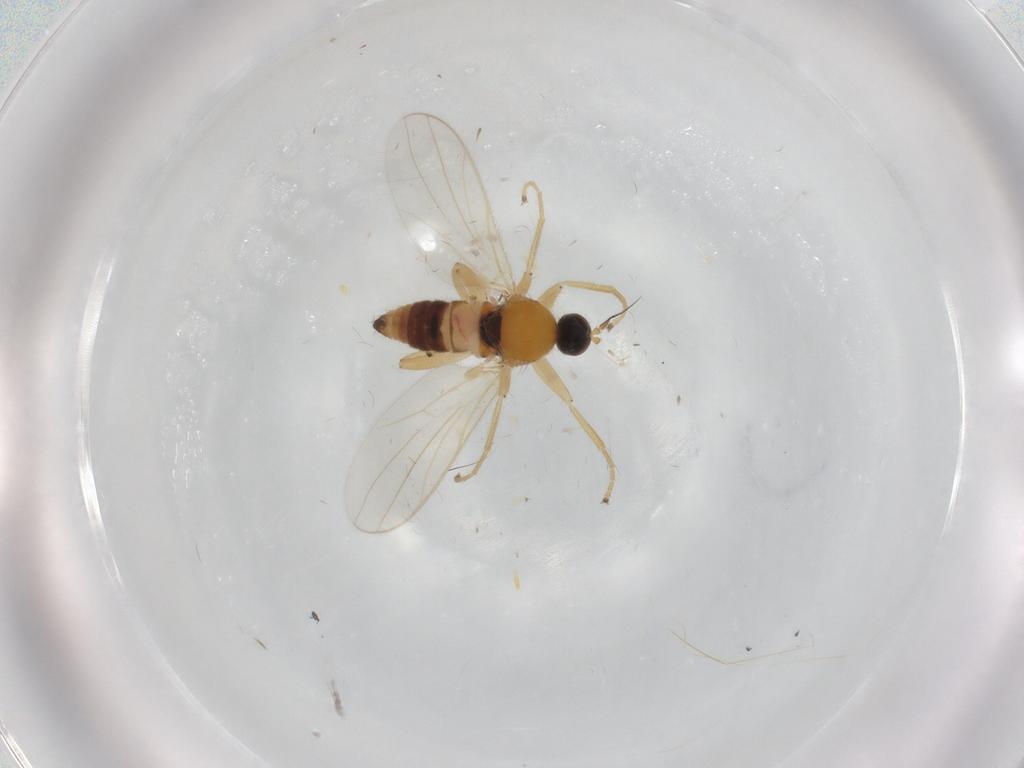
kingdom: Animalia
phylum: Arthropoda
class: Insecta
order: Diptera
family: Hybotidae
